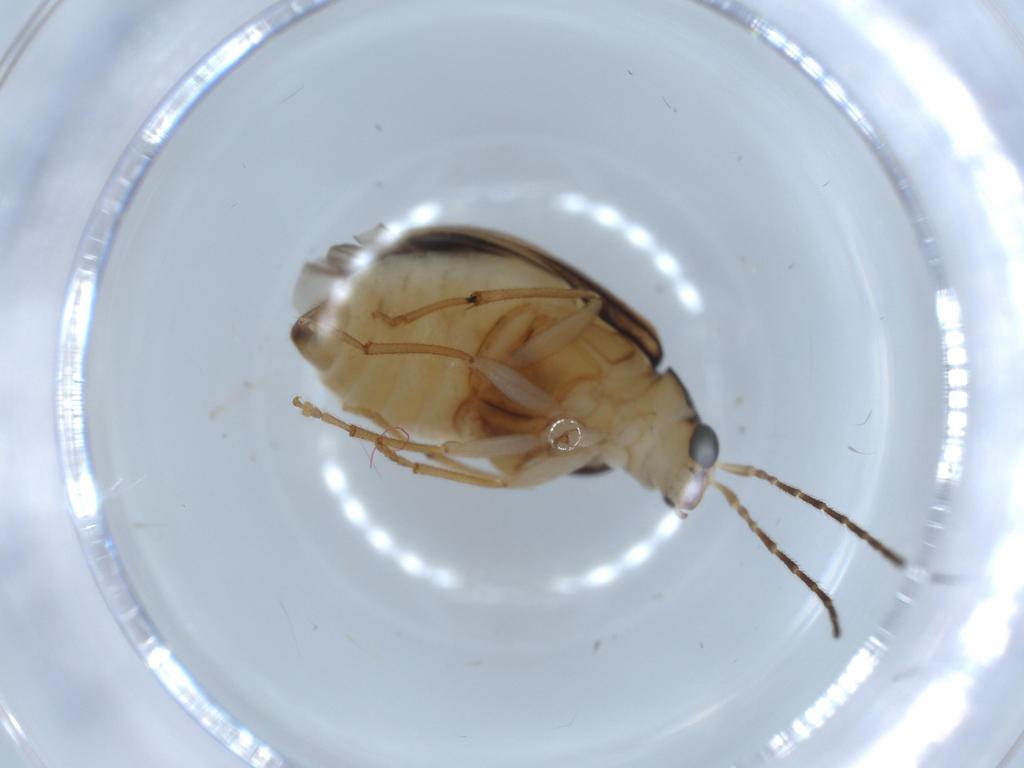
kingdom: Animalia
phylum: Arthropoda
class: Insecta
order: Coleoptera
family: Chrysomelidae
